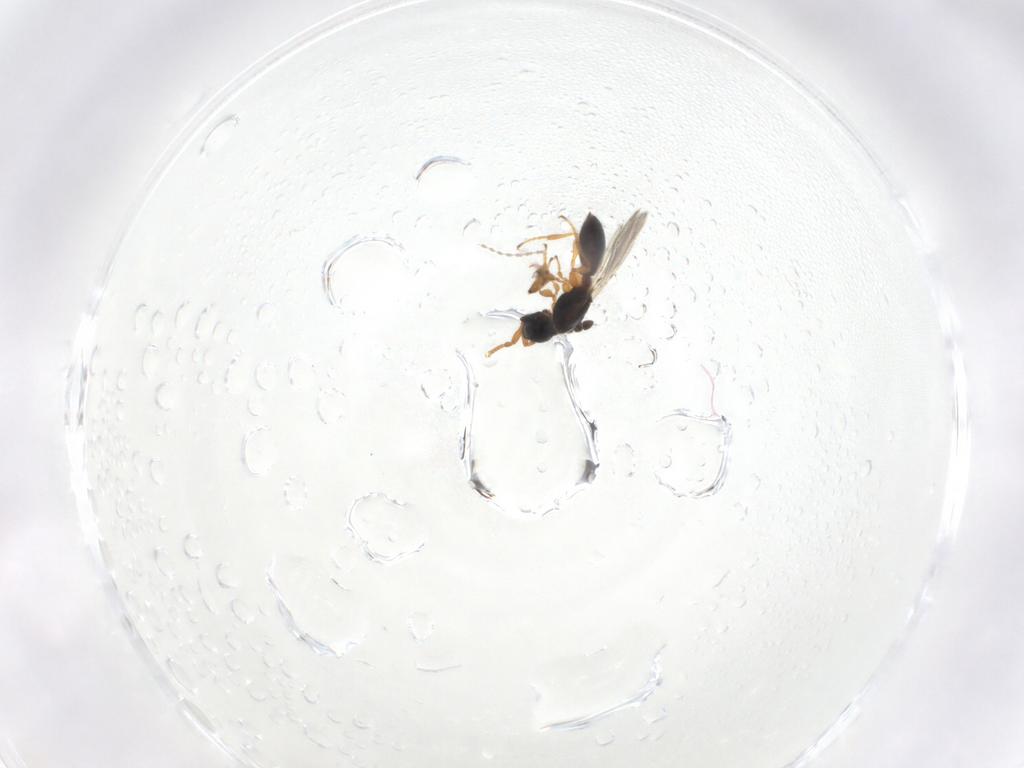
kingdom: Animalia
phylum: Arthropoda
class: Insecta
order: Hymenoptera
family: Diapriidae
